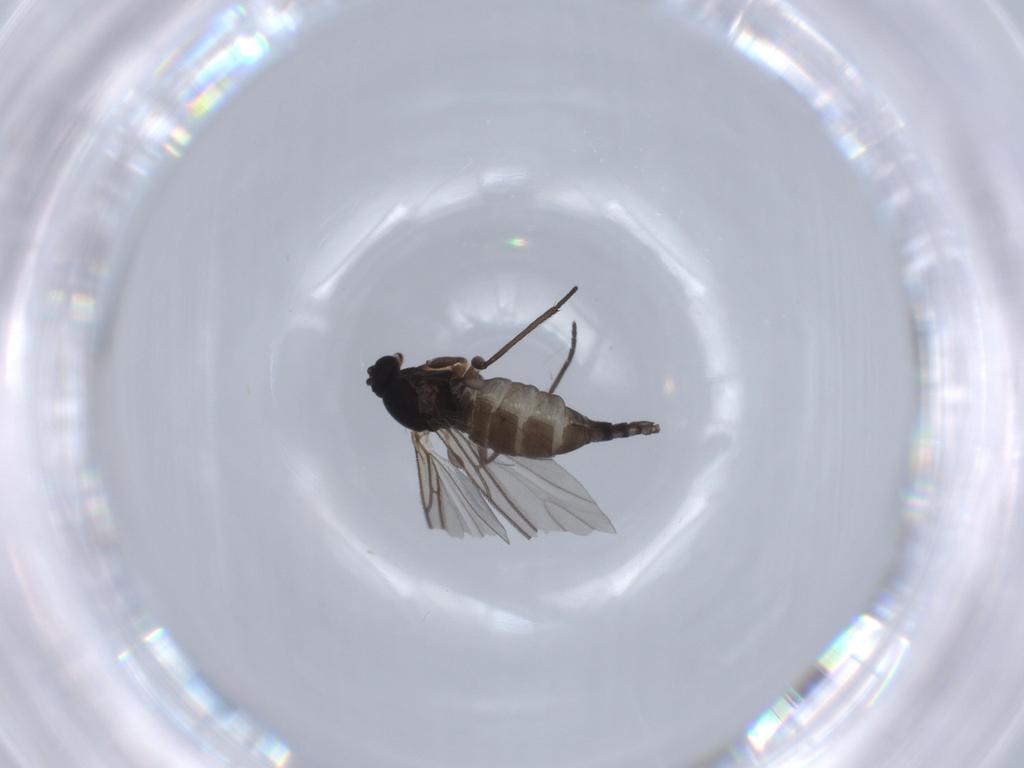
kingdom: Animalia
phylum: Arthropoda
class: Insecta
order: Diptera
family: Sciaridae
